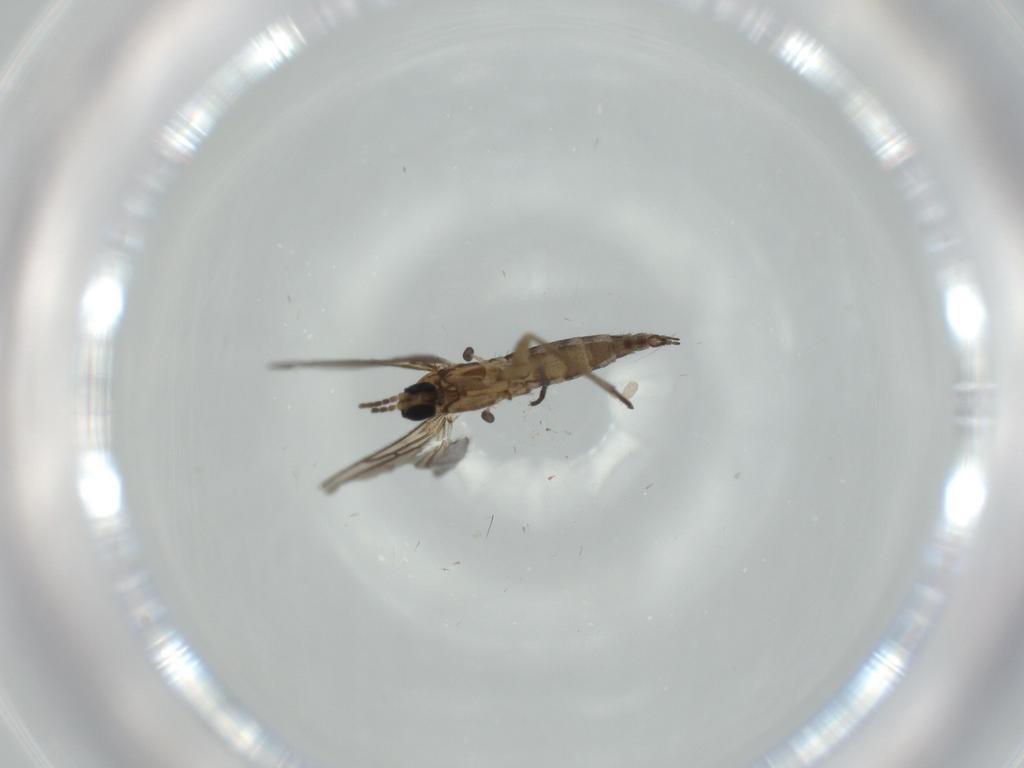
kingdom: Animalia
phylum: Arthropoda
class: Insecta
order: Diptera
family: Sciaridae
